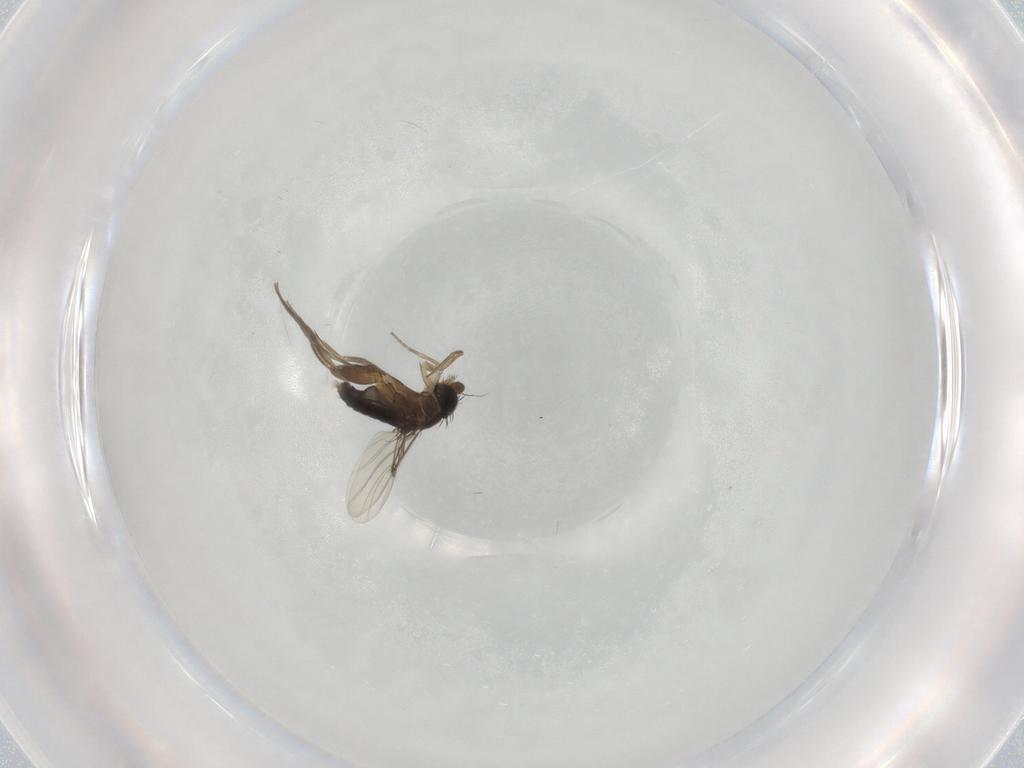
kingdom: Animalia
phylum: Arthropoda
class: Insecta
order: Diptera
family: Phoridae
